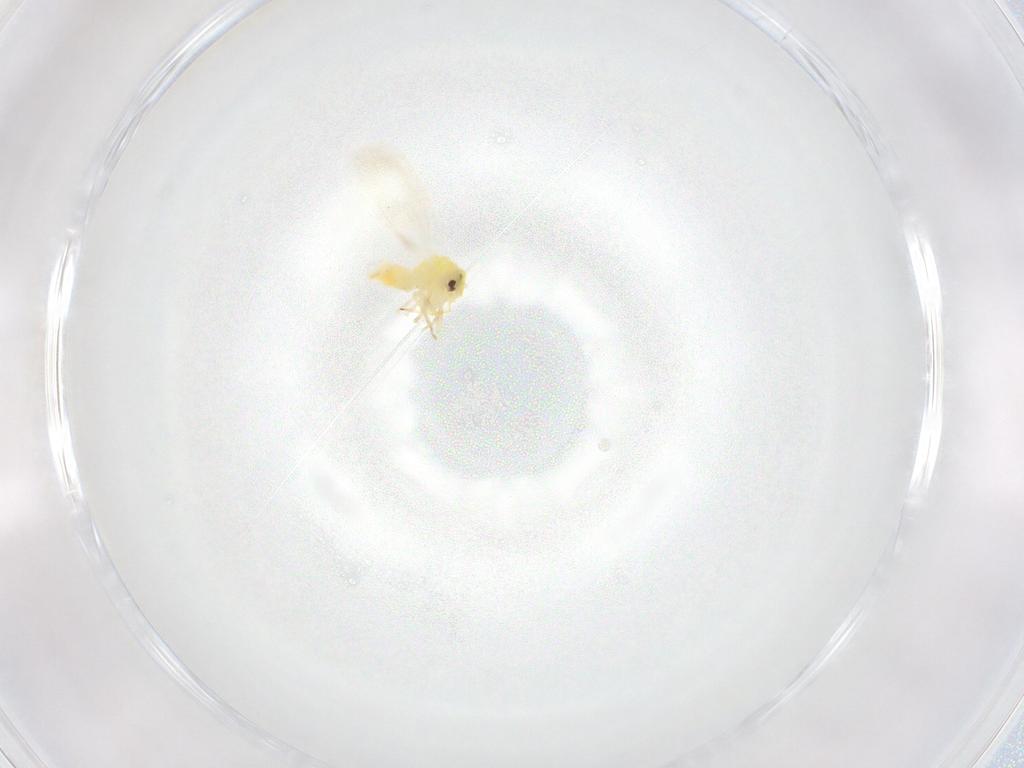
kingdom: Animalia
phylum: Arthropoda
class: Insecta
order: Hemiptera
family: Aleyrodidae
